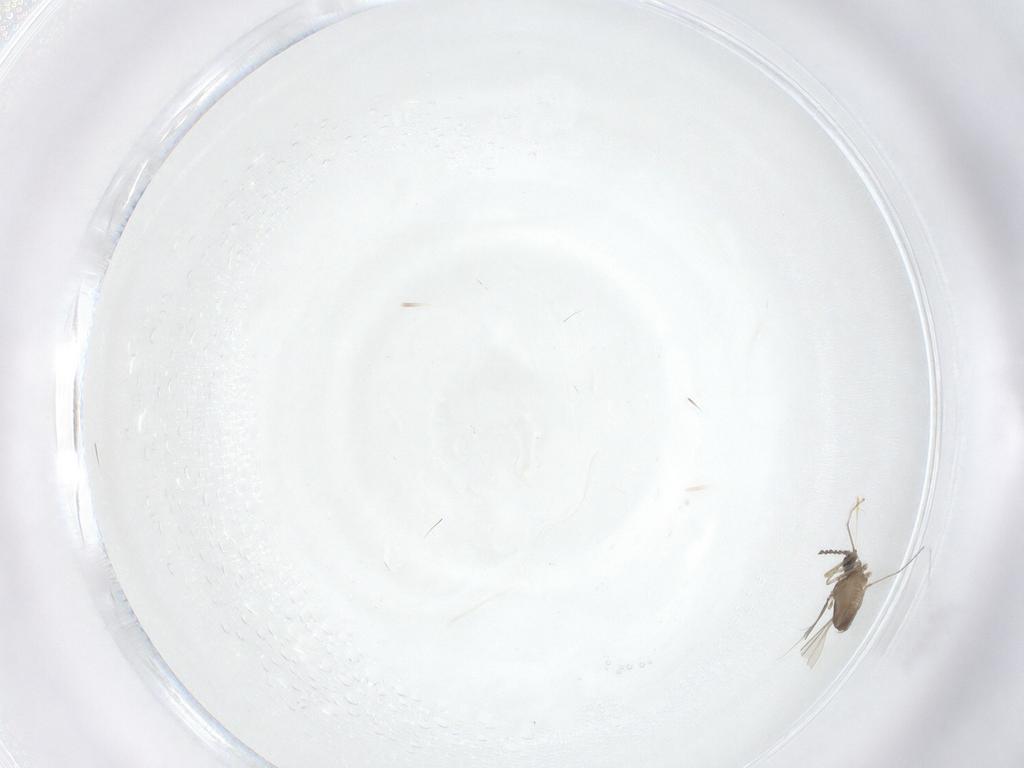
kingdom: Animalia
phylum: Arthropoda
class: Insecta
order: Diptera
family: Cecidomyiidae
